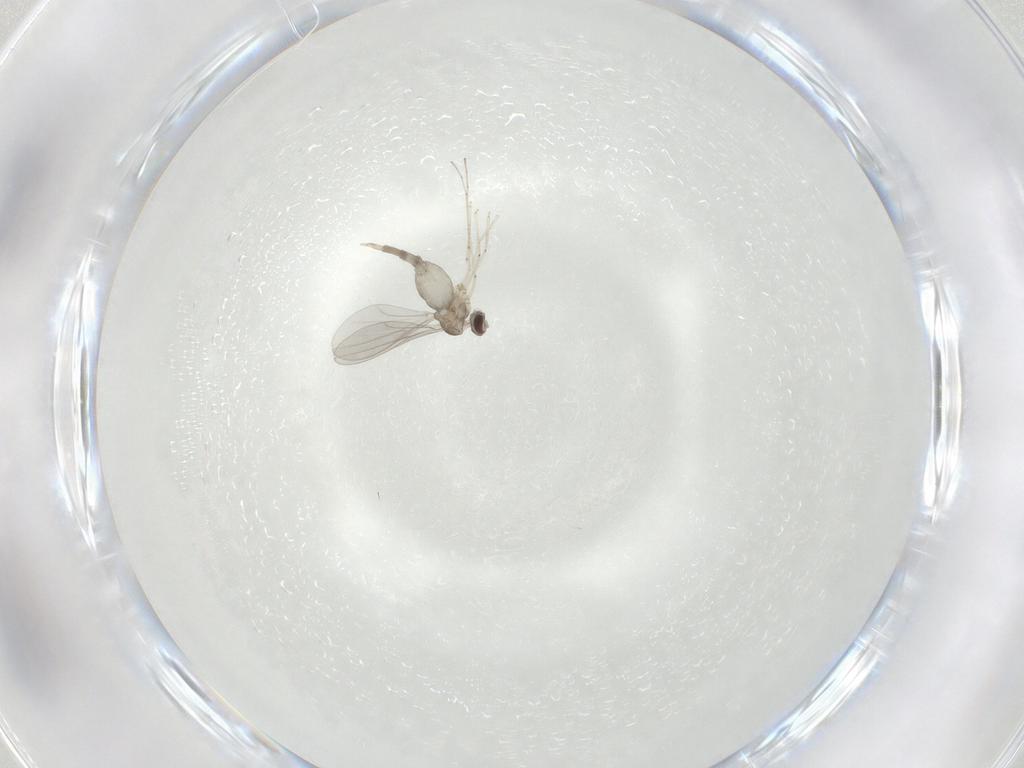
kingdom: Animalia
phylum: Arthropoda
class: Insecta
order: Diptera
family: Cecidomyiidae
